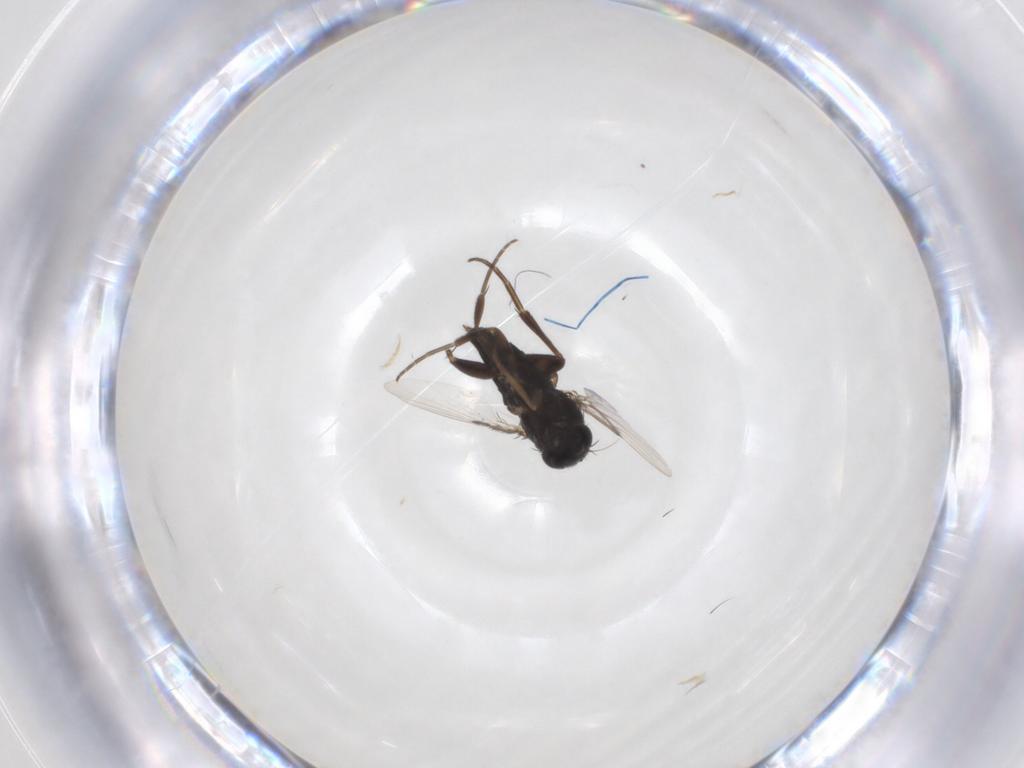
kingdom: Animalia
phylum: Arthropoda
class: Insecta
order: Diptera
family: Phoridae
